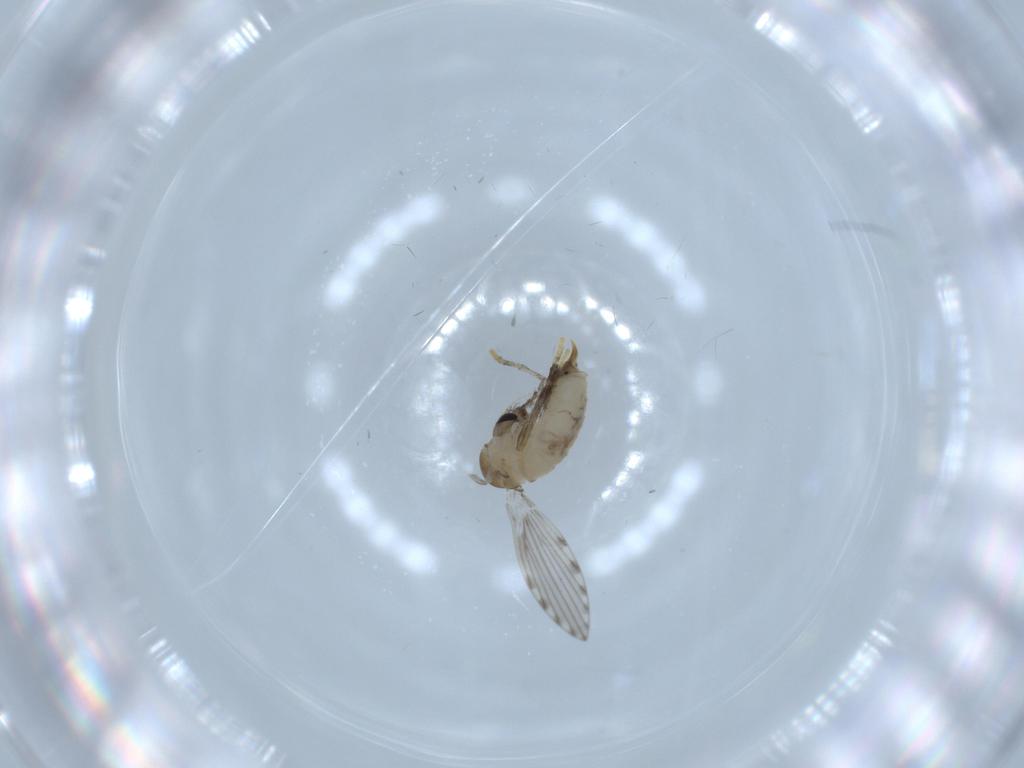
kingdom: Animalia
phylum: Arthropoda
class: Insecta
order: Diptera
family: Psychodidae
